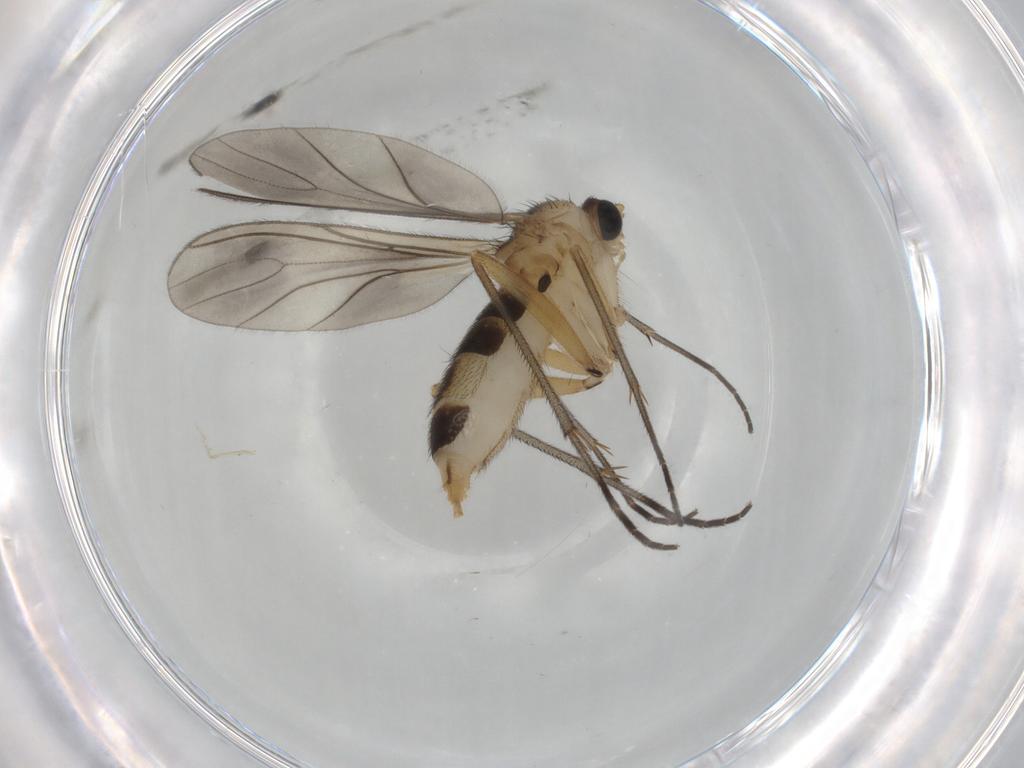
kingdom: Animalia
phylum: Arthropoda
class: Insecta
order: Diptera
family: Sciaridae
